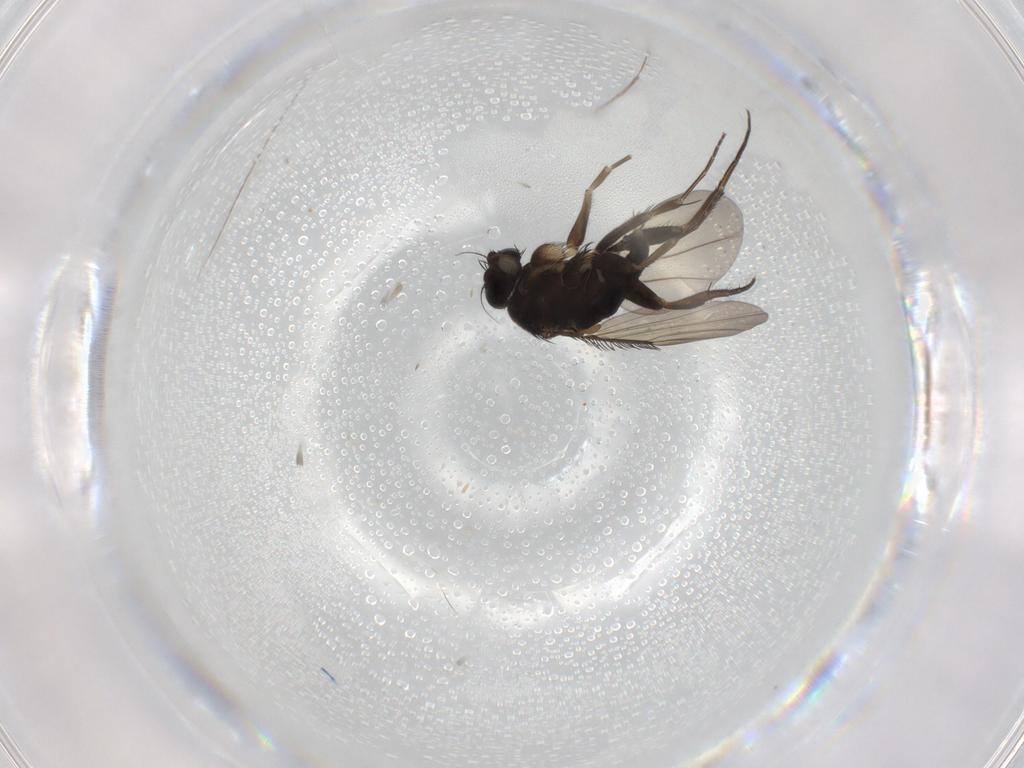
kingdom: Animalia
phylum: Arthropoda
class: Insecta
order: Diptera
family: Phoridae
